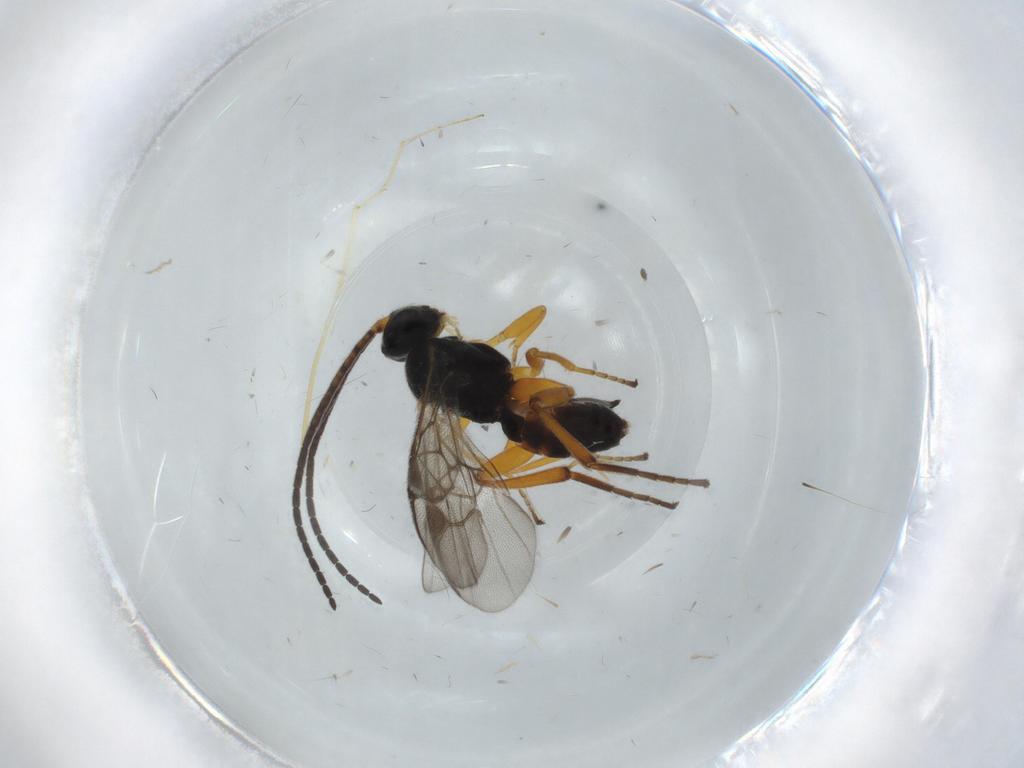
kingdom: Animalia
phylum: Arthropoda
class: Insecta
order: Hymenoptera
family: Braconidae
